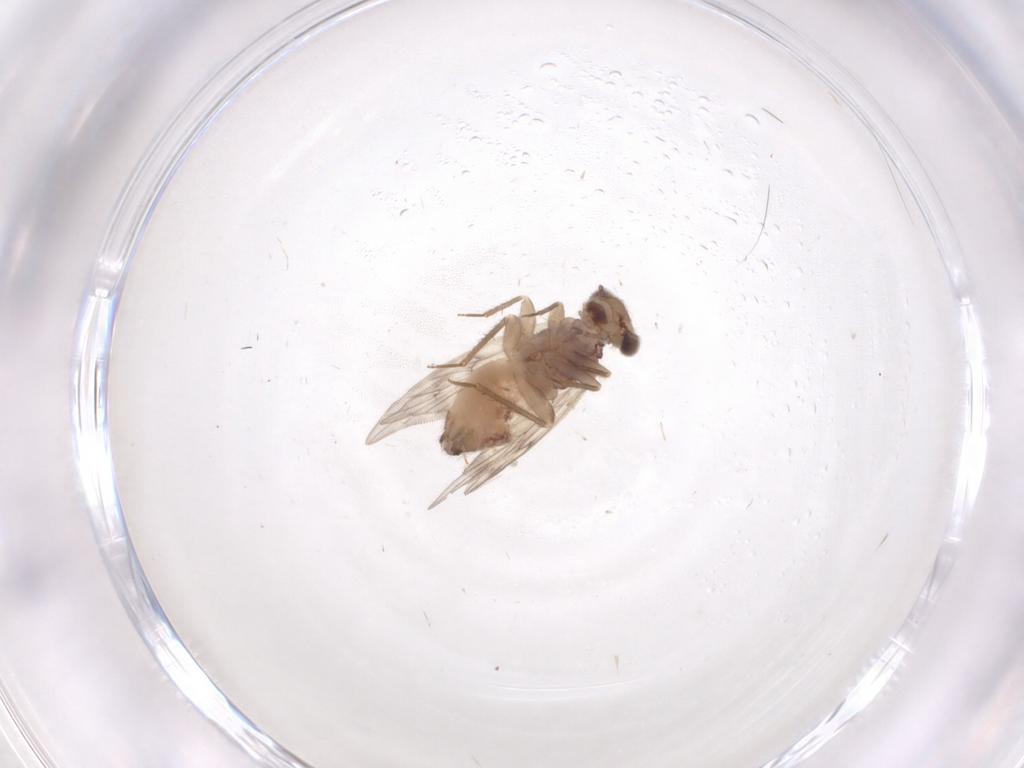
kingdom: Animalia
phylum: Arthropoda
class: Insecta
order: Psocodea
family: Lepidopsocidae
